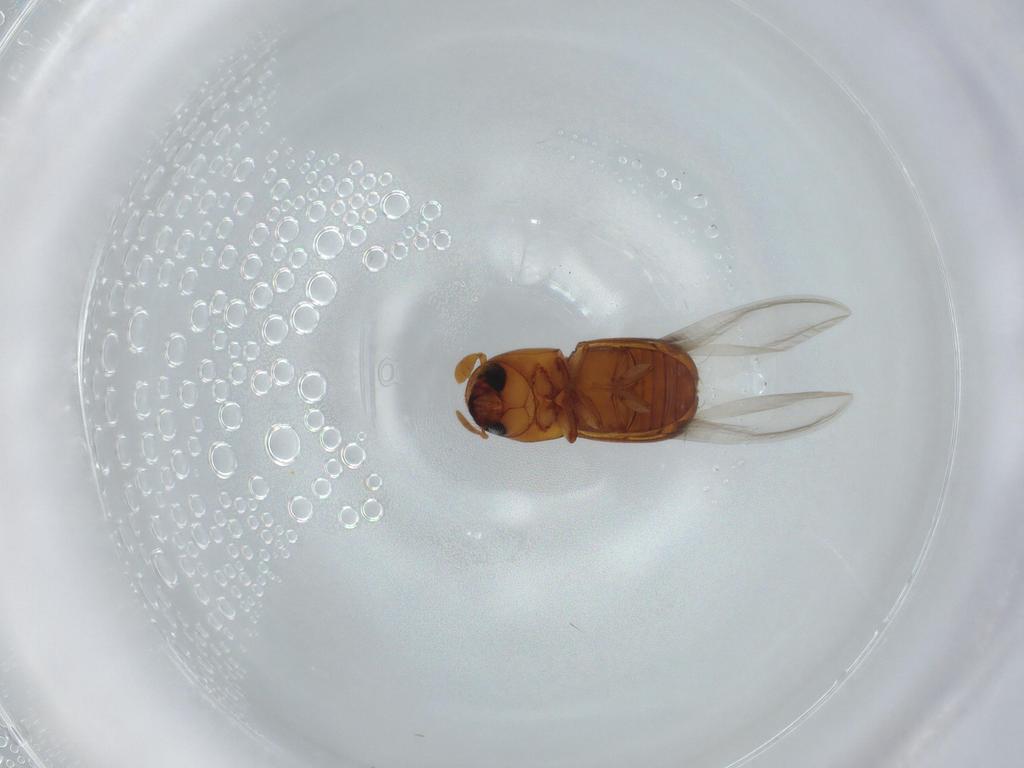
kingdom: Animalia
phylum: Arthropoda
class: Insecta
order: Coleoptera
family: Curculionidae
